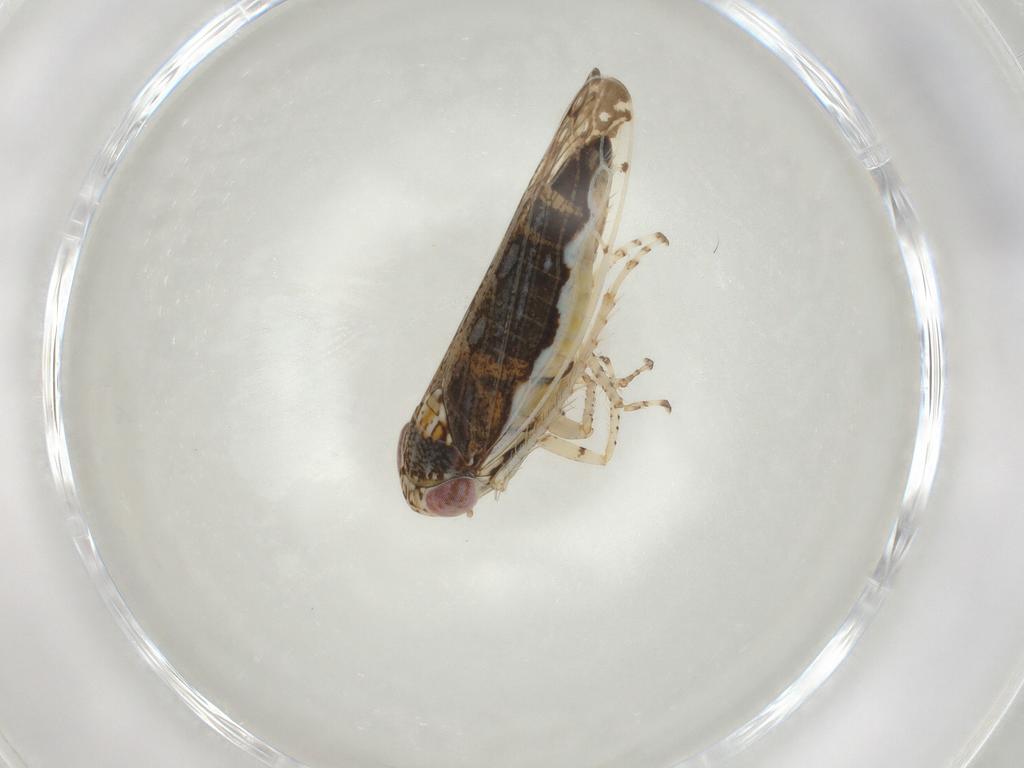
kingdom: Animalia
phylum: Arthropoda
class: Insecta
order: Hemiptera
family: Cicadellidae
